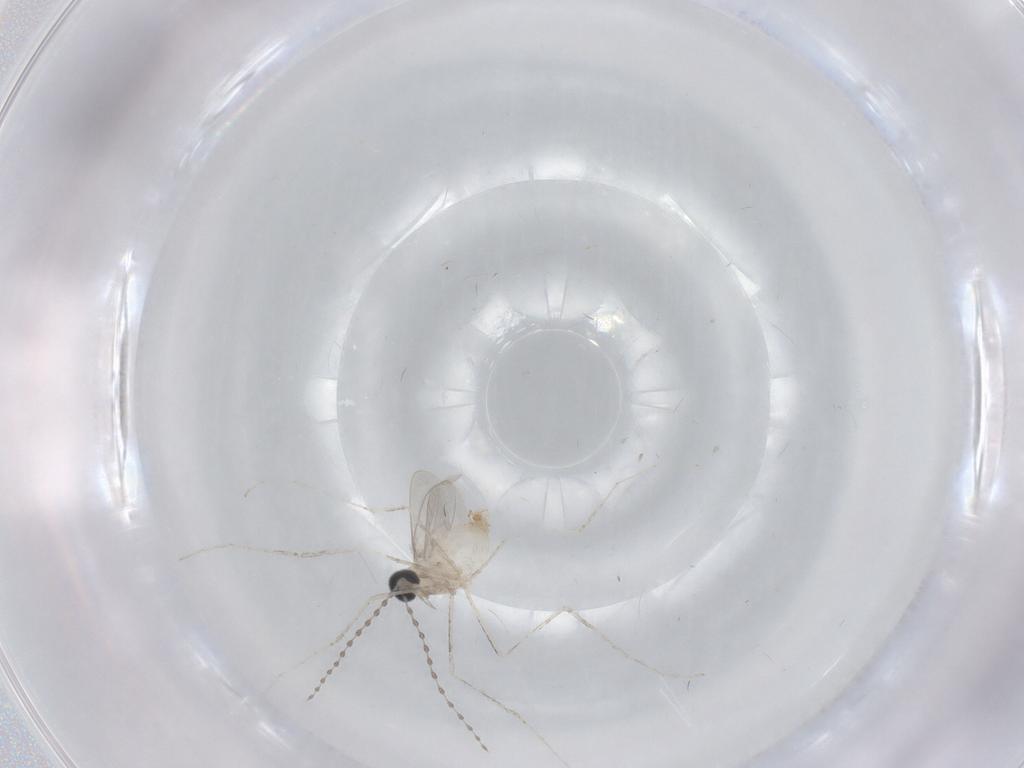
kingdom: Animalia
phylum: Arthropoda
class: Insecta
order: Diptera
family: Cecidomyiidae
